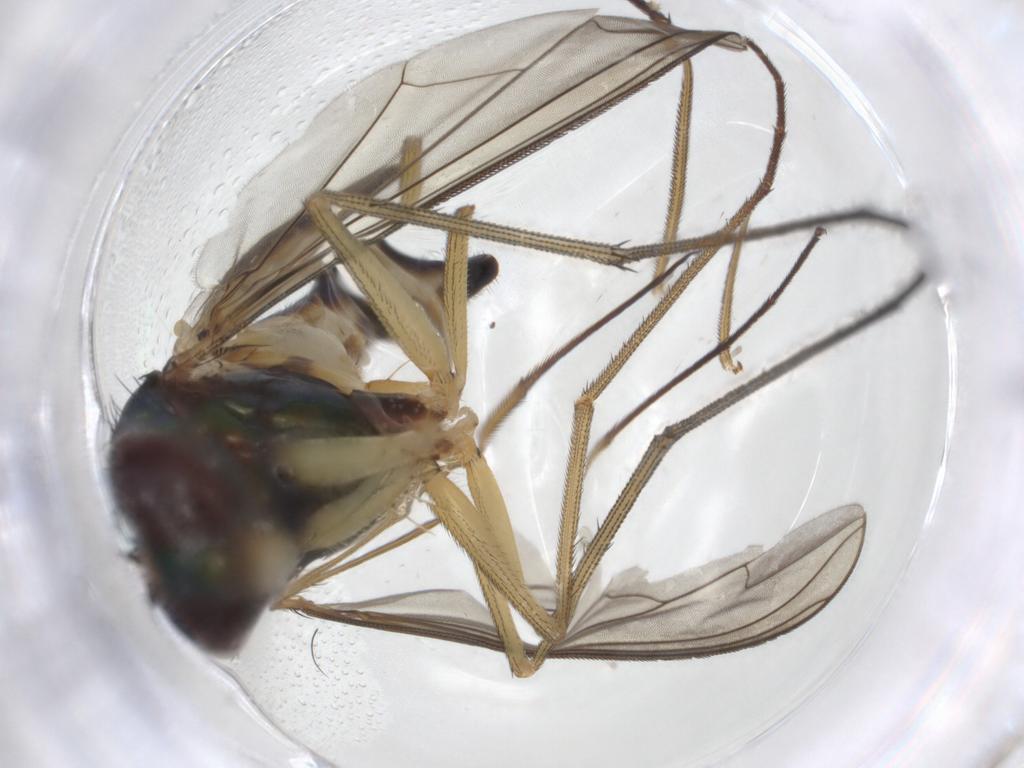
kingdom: Animalia
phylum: Arthropoda
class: Insecta
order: Diptera
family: Dolichopodidae
